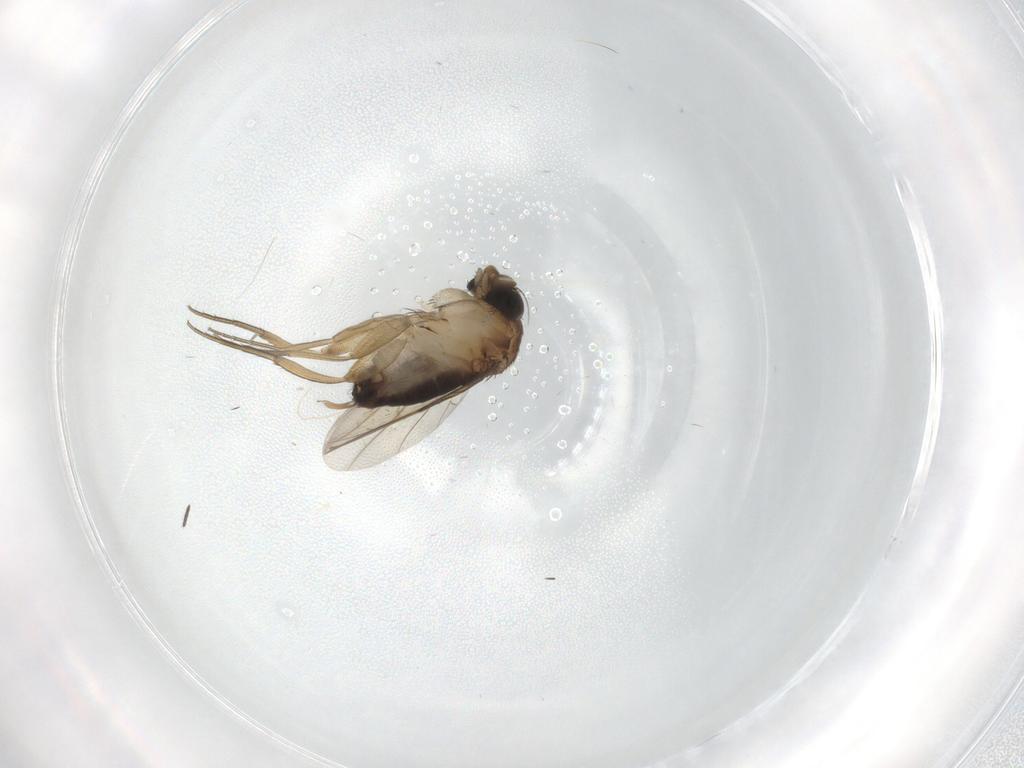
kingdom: Animalia
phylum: Arthropoda
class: Insecta
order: Diptera
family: Phoridae
